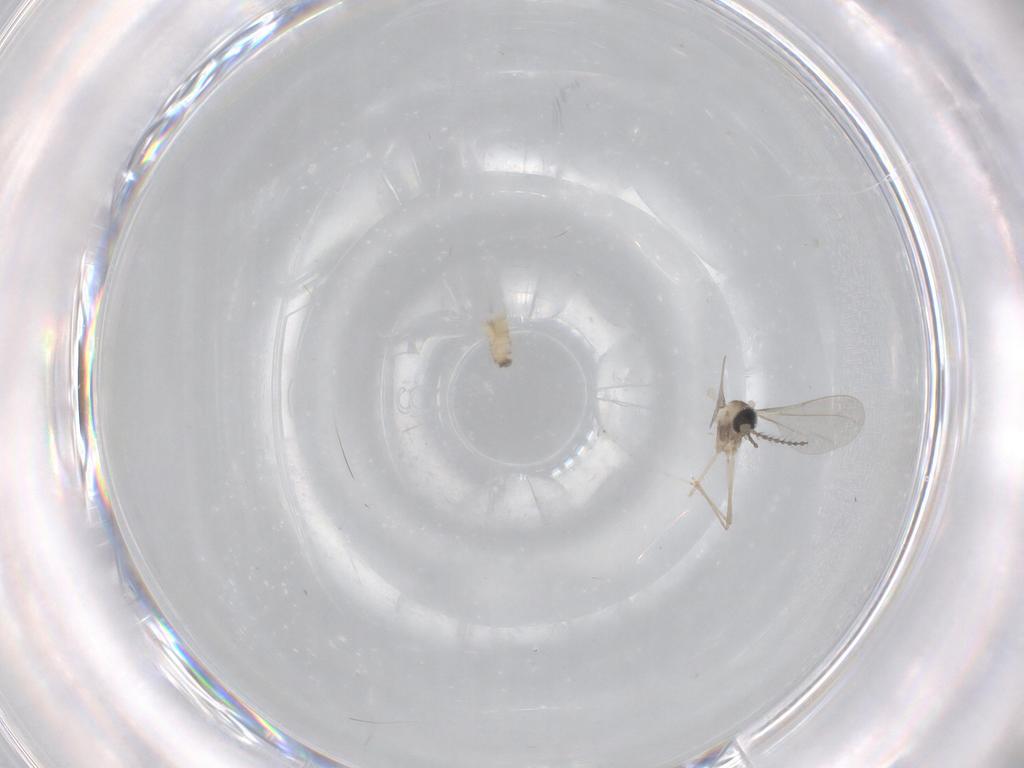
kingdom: Animalia
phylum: Arthropoda
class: Insecta
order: Diptera
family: Cecidomyiidae
